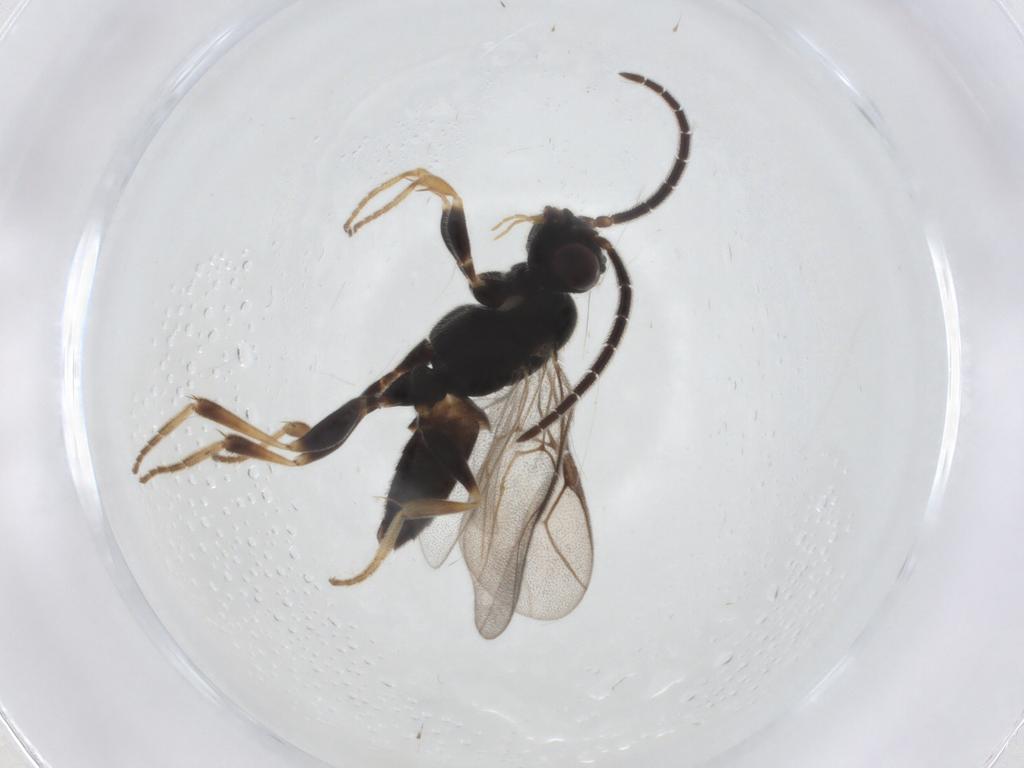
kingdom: Animalia
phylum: Arthropoda
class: Insecta
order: Hymenoptera
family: Dryinidae
